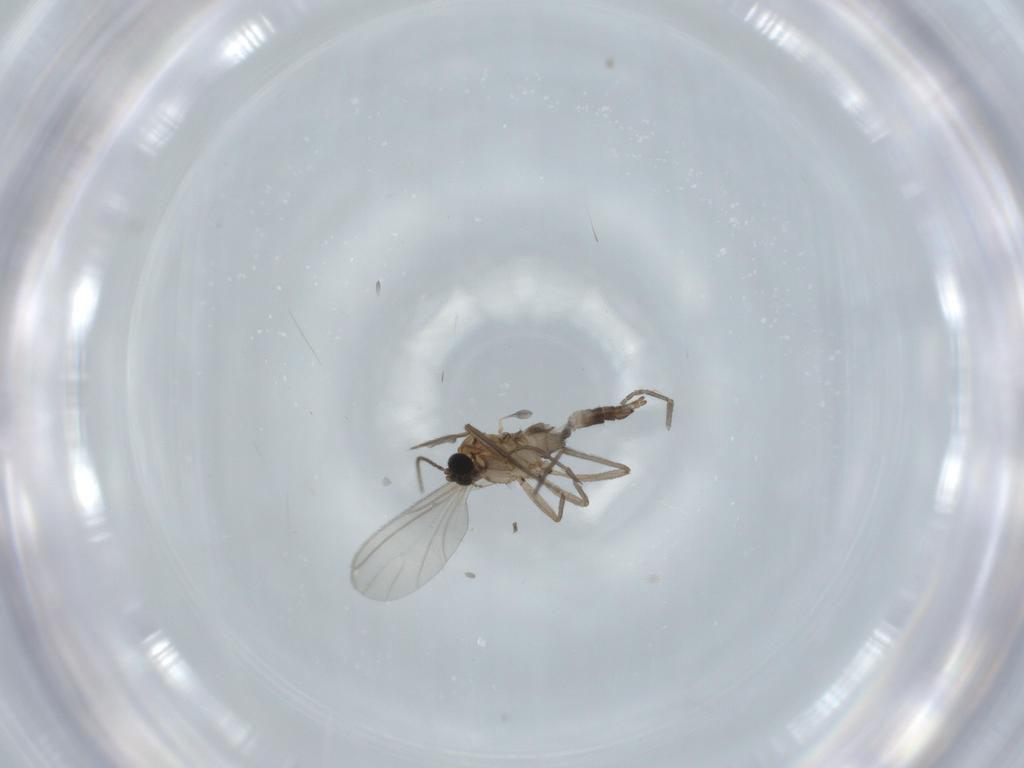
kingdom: Animalia
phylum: Arthropoda
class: Insecta
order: Diptera
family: Sciaridae
